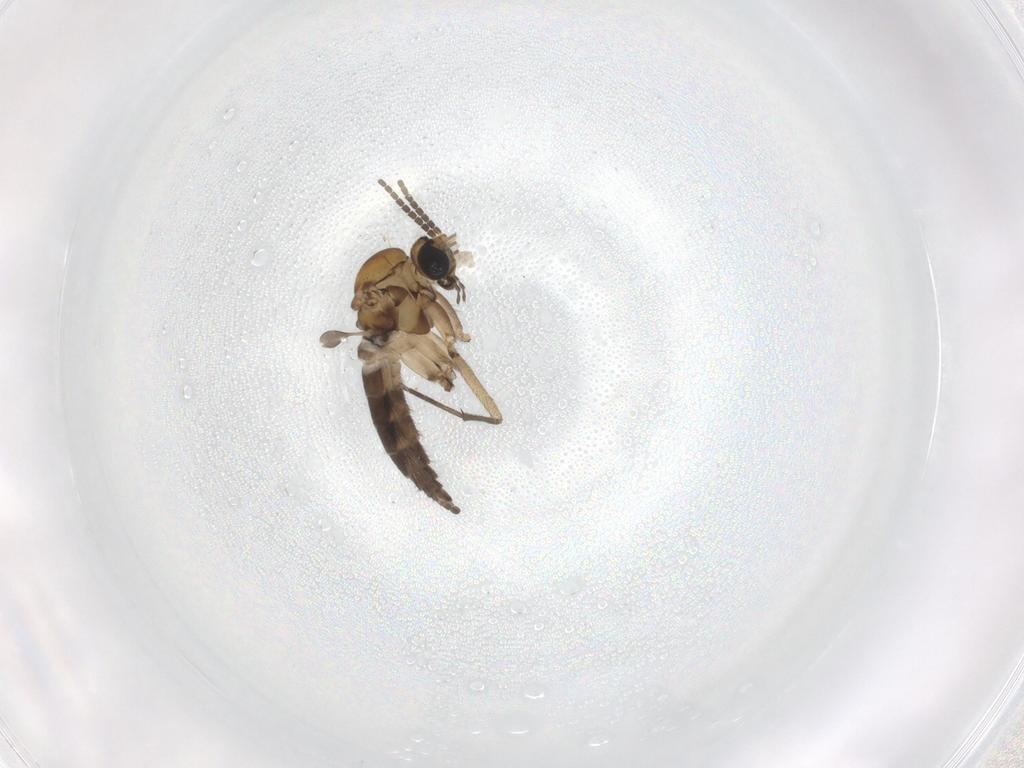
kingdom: Animalia
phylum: Arthropoda
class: Insecta
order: Diptera
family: Sciaridae
